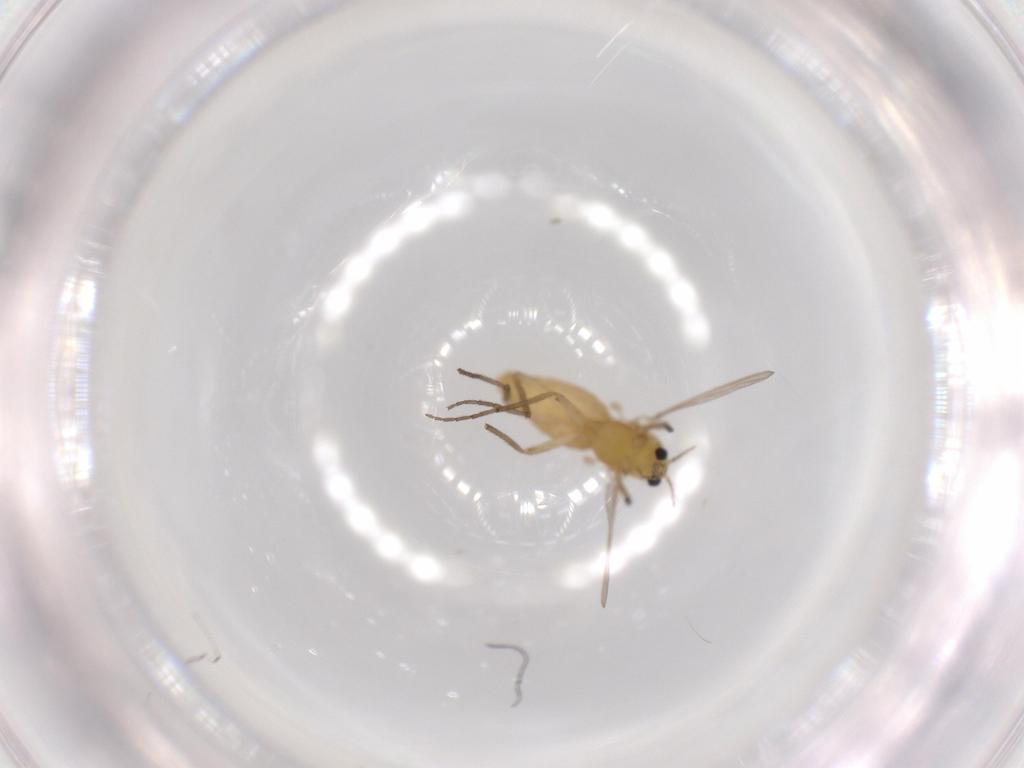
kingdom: Animalia
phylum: Arthropoda
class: Insecta
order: Diptera
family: Chironomidae
